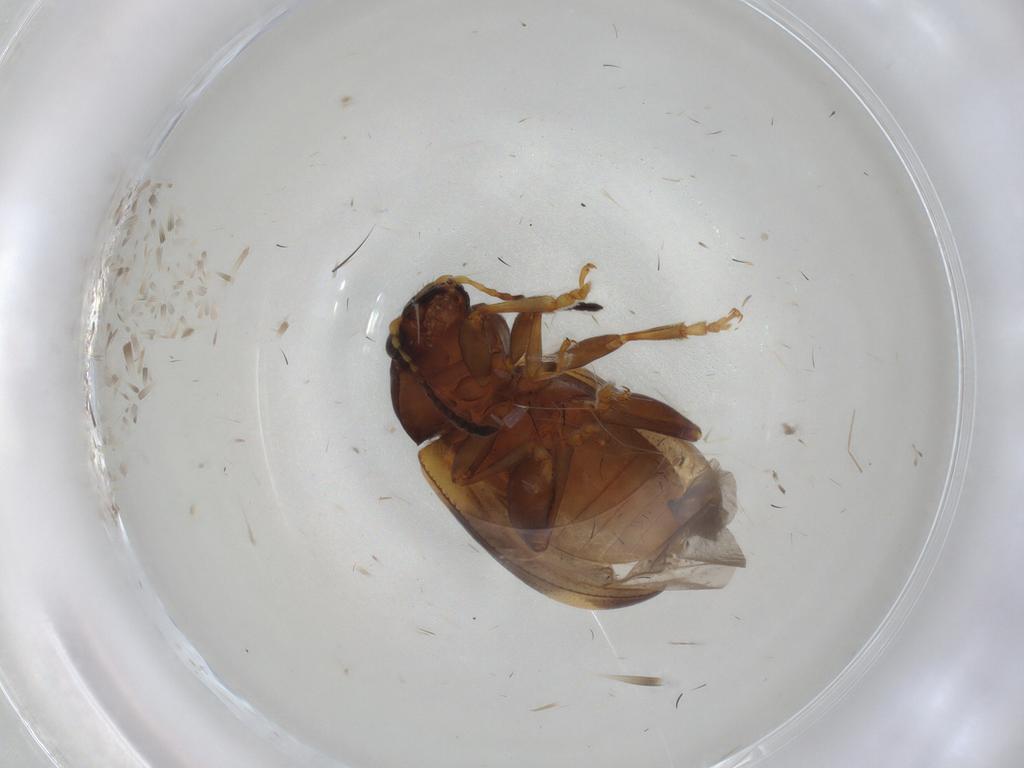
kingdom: Animalia
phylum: Arthropoda
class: Insecta
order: Coleoptera
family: Chrysomelidae
